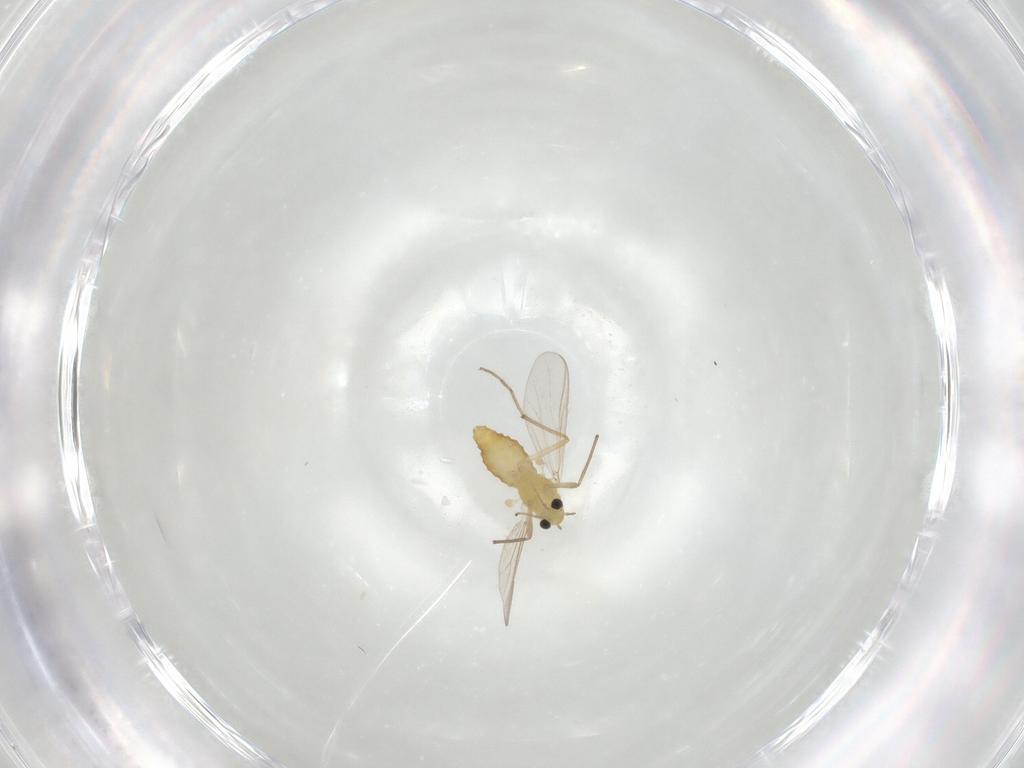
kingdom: Animalia
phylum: Arthropoda
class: Insecta
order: Diptera
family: Chironomidae
